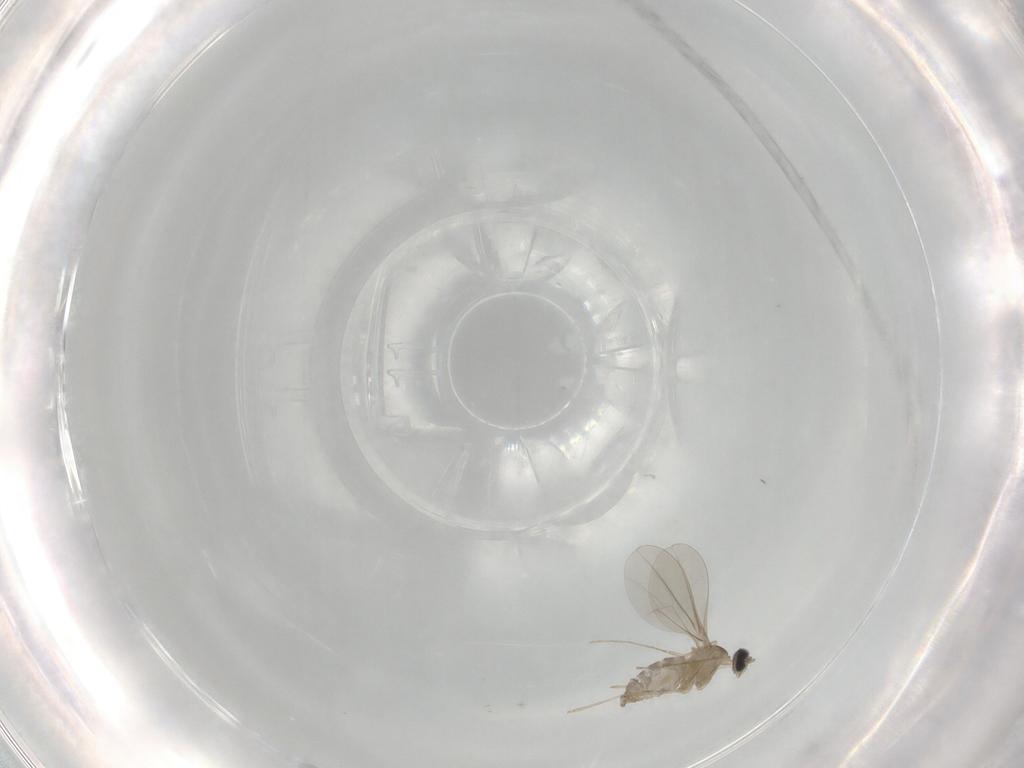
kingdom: Animalia
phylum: Arthropoda
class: Insecta
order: Diptera
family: Cecidomyiidae
